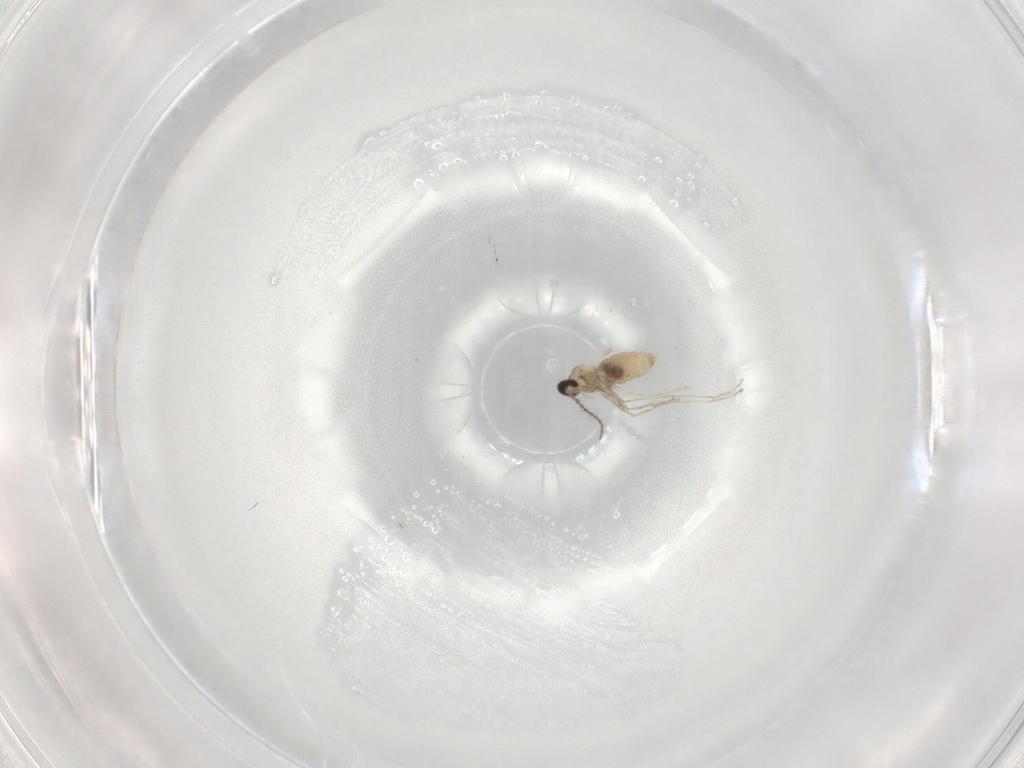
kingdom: Animalia
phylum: Arthropoda
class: Insecta
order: Diptera
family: Cecidomyiidae
